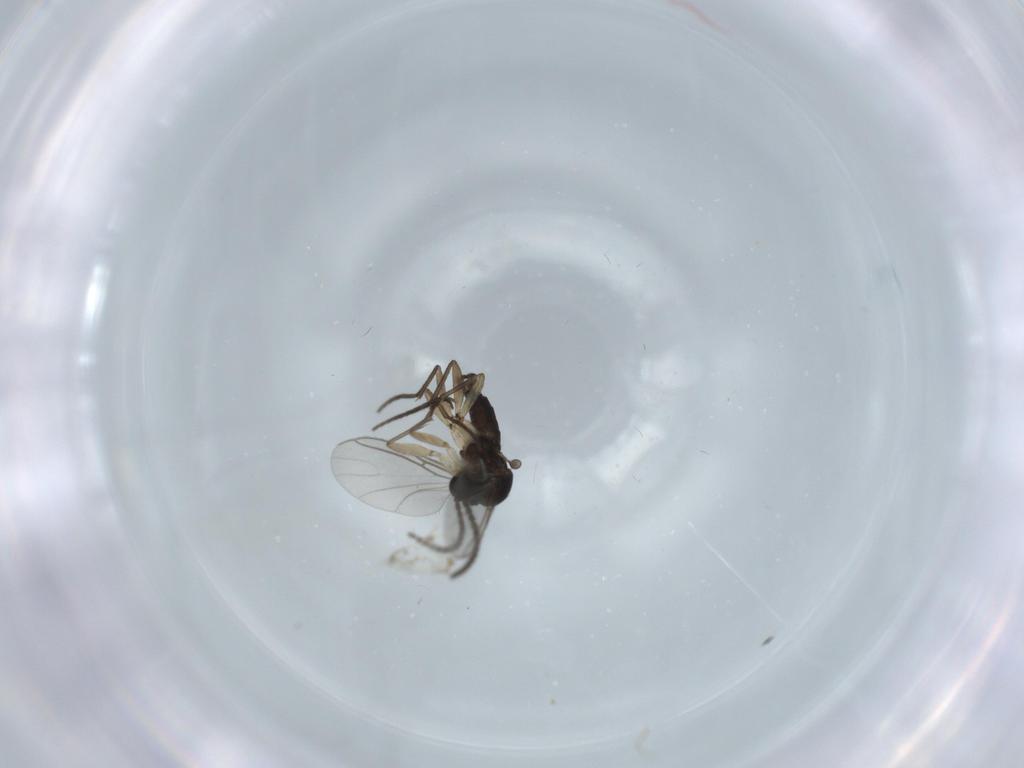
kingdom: Animalia
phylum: Arthropoda
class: Insecta
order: Diptera
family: Sciaridae
